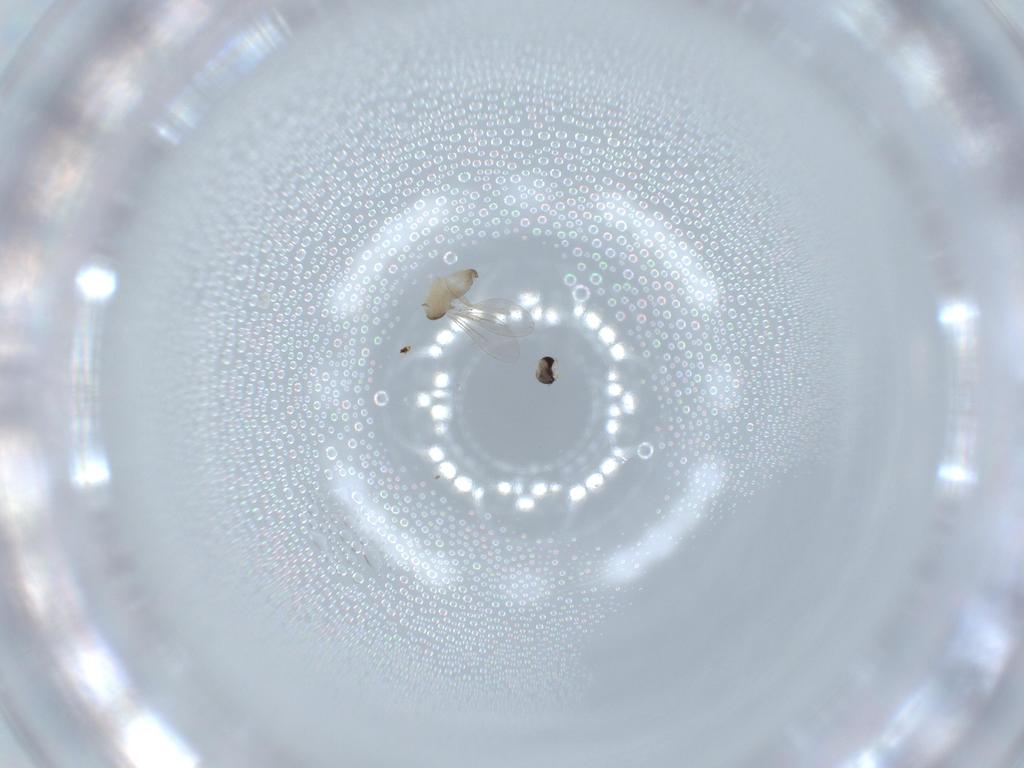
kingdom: Animalia
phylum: Arthropoda
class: Insecta
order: Diptera
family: Cecidomyiidae
